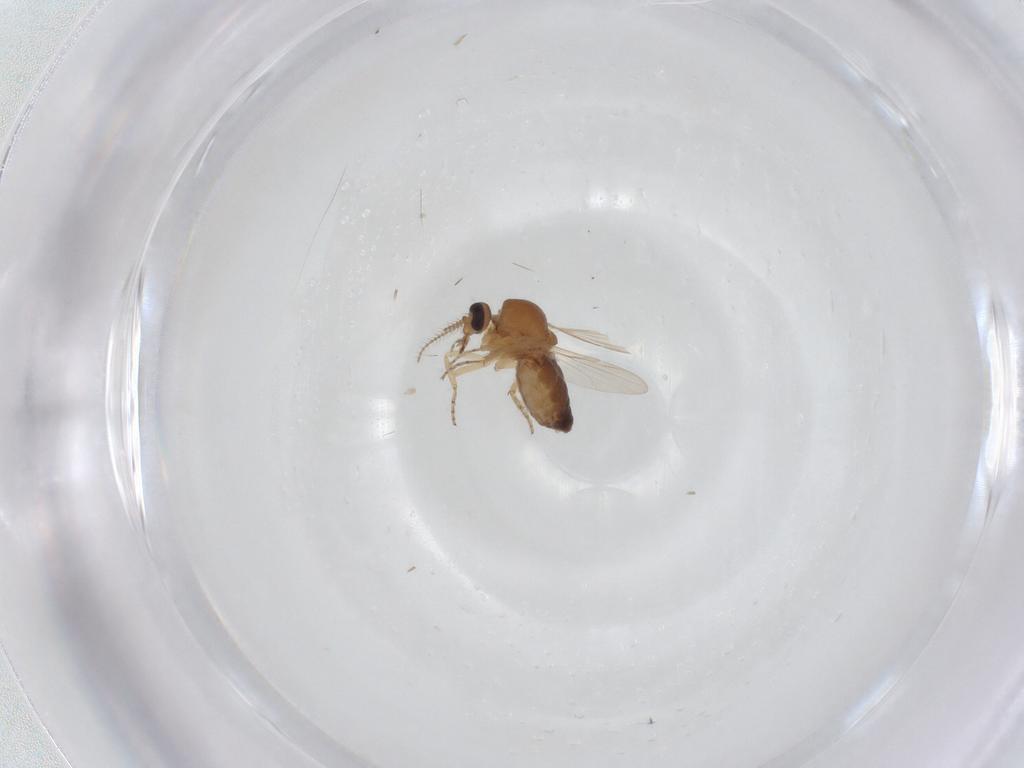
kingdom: Animalia
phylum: Arthropoda
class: Insecta
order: Diptera
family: Ceratopogonidae
